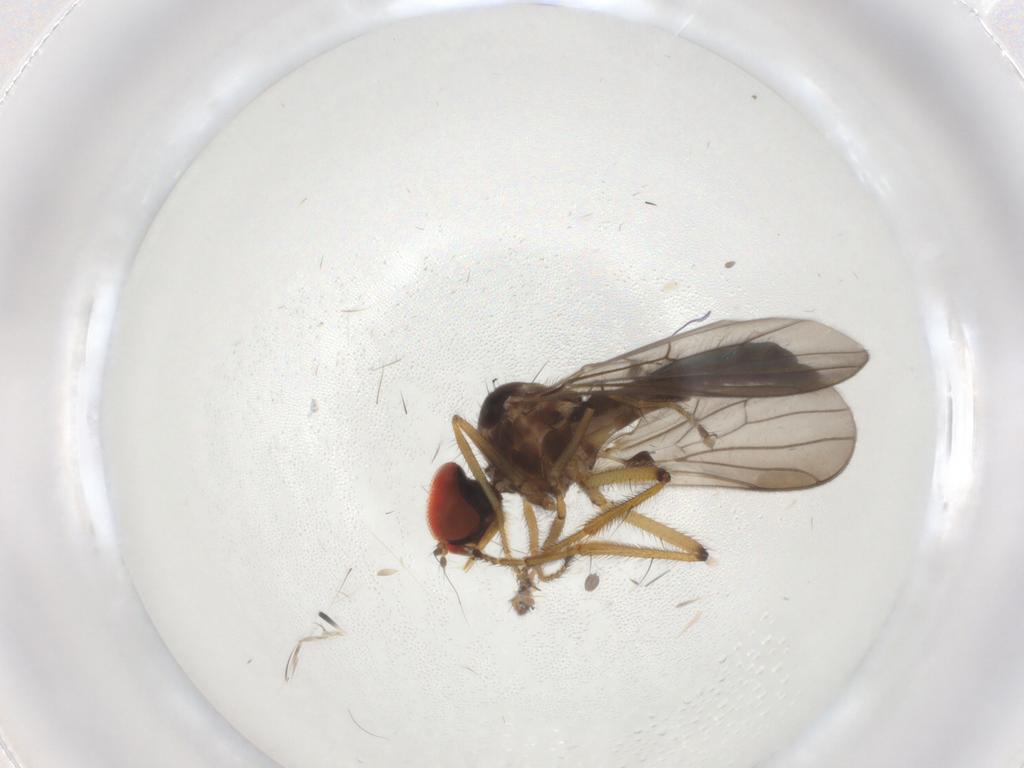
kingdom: Animalia
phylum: Arthropoda
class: Insecta
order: Diptera
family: Hybotidae
